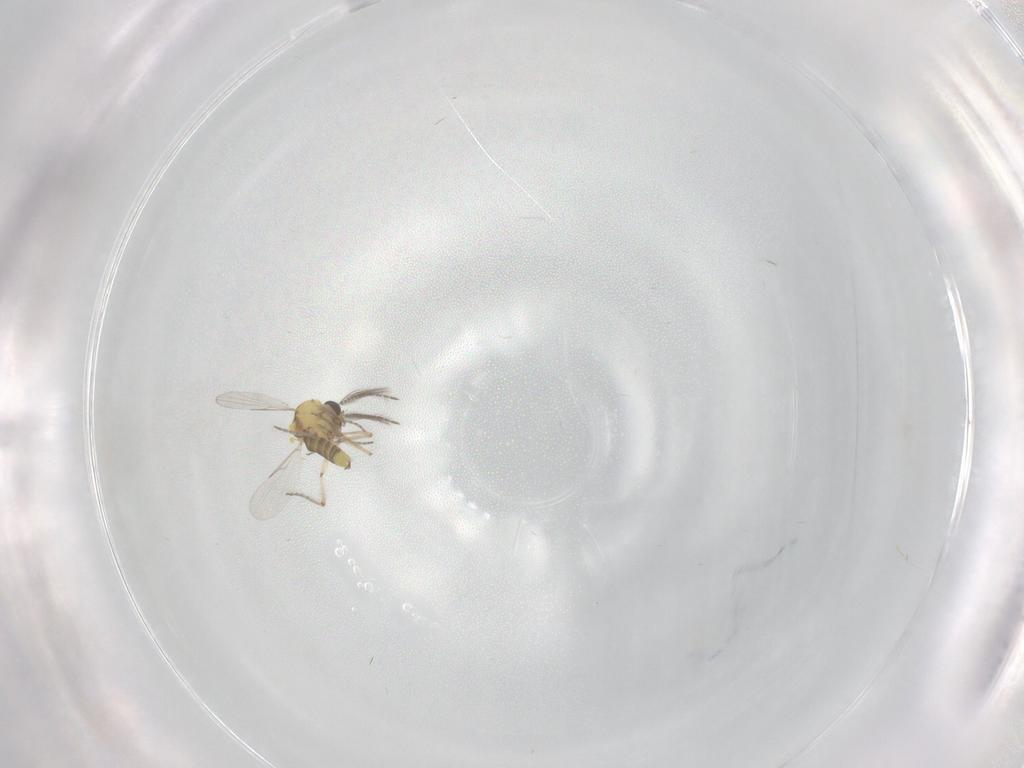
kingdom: Animalia
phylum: Arthropoda
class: Insecta
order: Diptera
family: Ceratopogonidae
